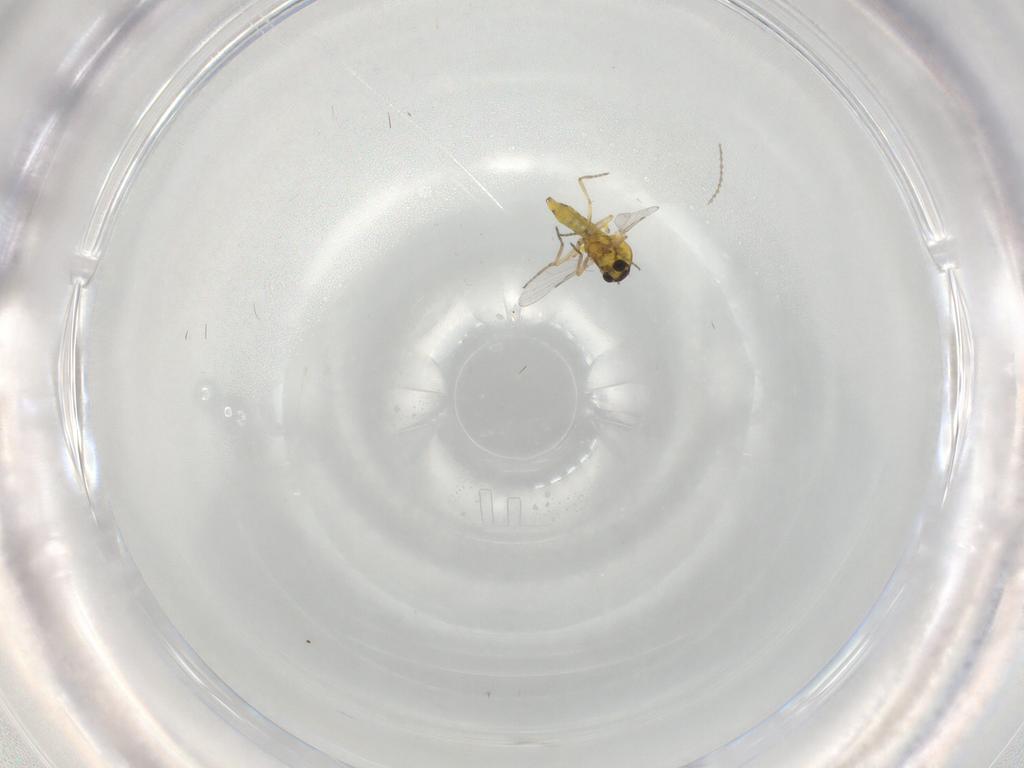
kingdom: Animalia
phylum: Arthropoda
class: Insecta
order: Diptera
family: Cecidomyiidae
